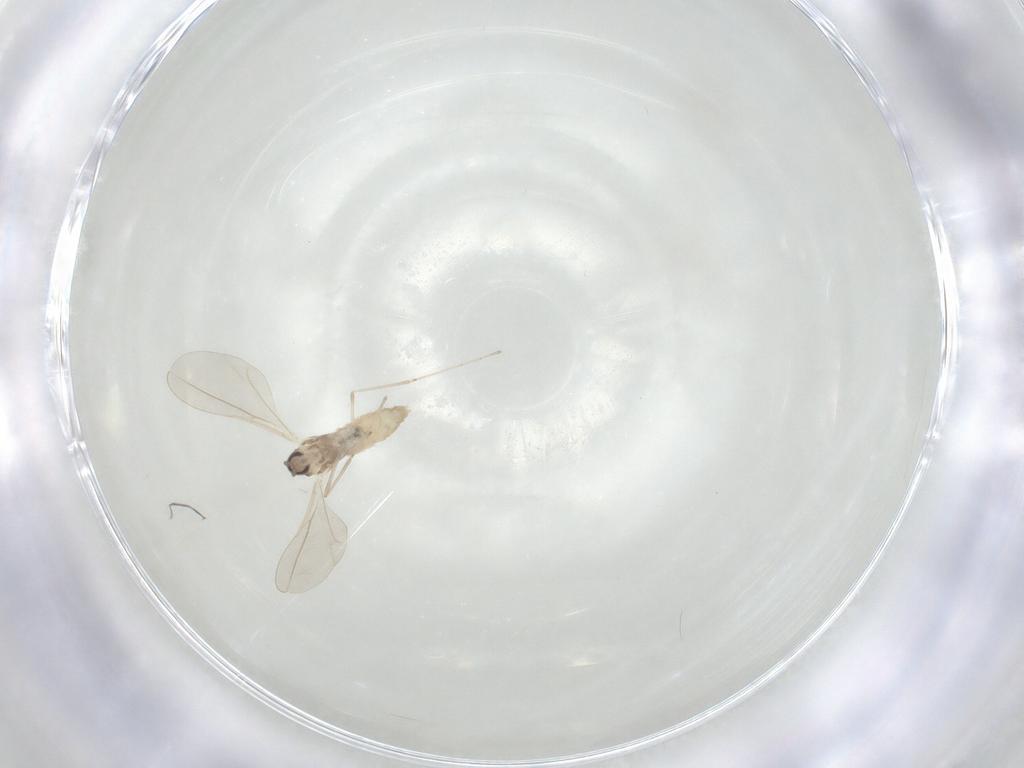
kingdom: Animalia
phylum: Arthropoda
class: Insecta
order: Diptera
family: Cecidomyiidae
